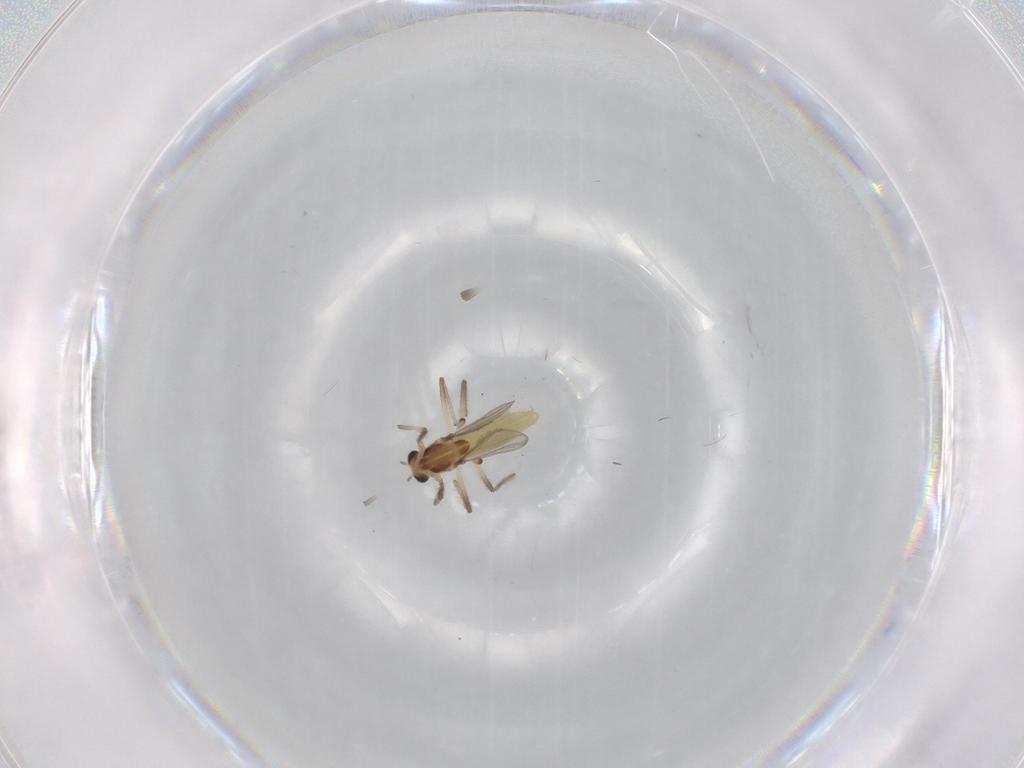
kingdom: Animalia
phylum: Arthropoda
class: Insecta
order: Diptera
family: Chironomidae
